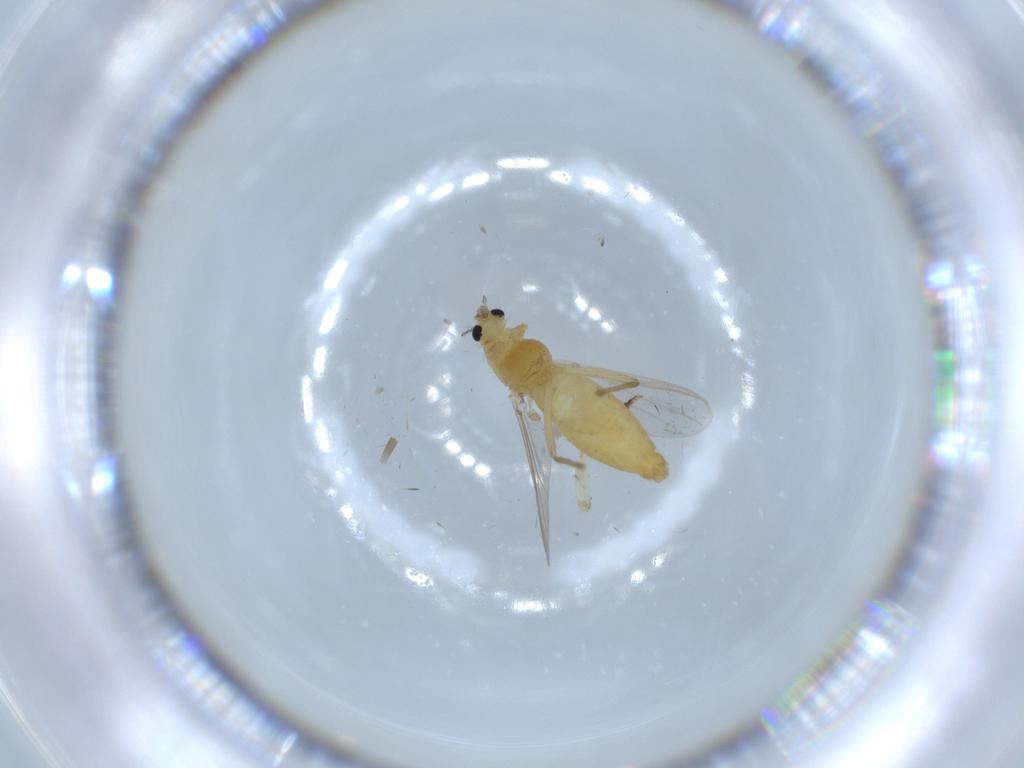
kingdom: Animalia
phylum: Arthropoda
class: Insecta
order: Diptera
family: Chironomidae
